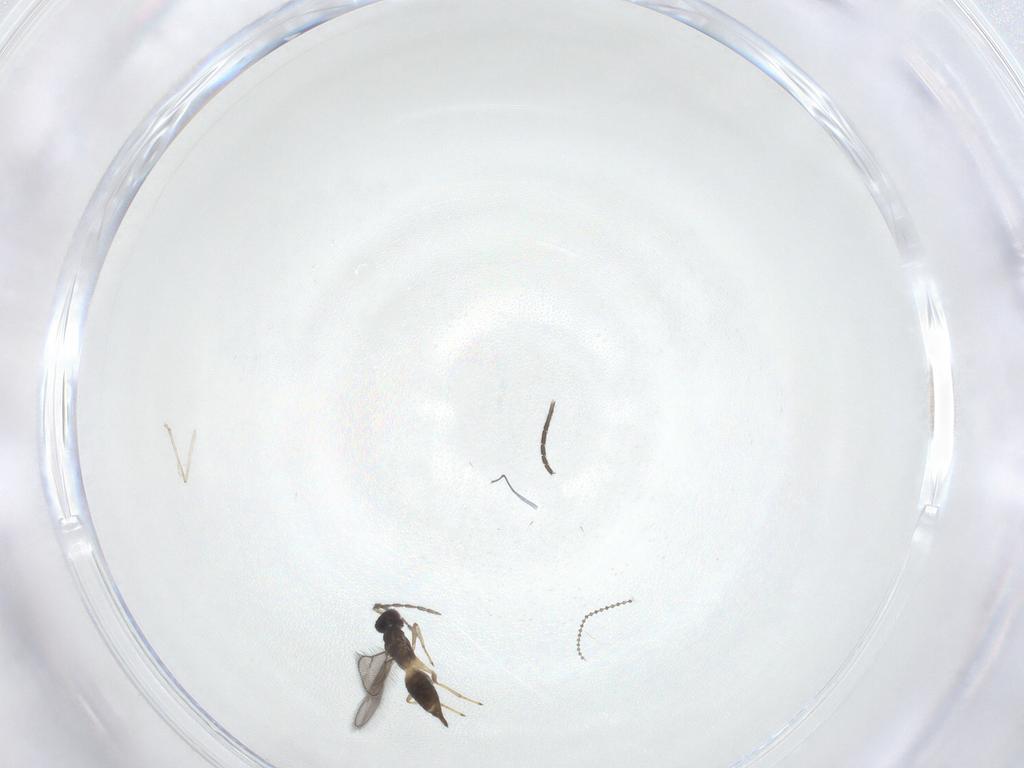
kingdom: Animalia
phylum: Arthropoda
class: Insecta
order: Hymenoptera
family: Eulophidae
